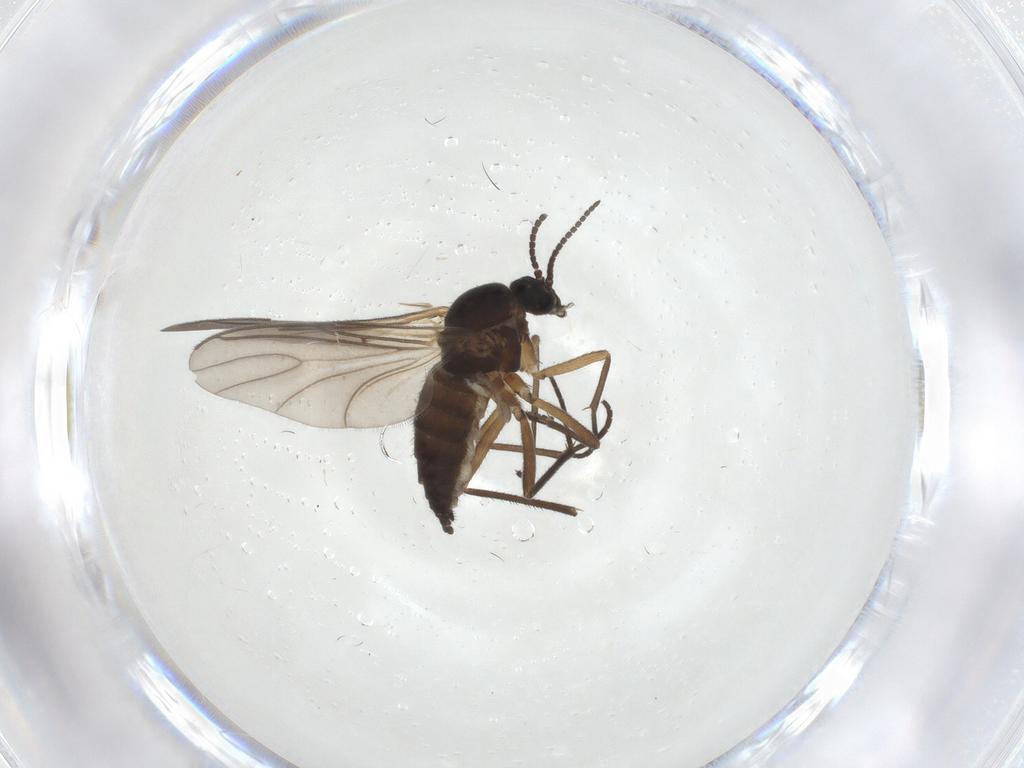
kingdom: Animalia
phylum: Arthropoda
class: Insecta
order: Diptera
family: Sciaridae
